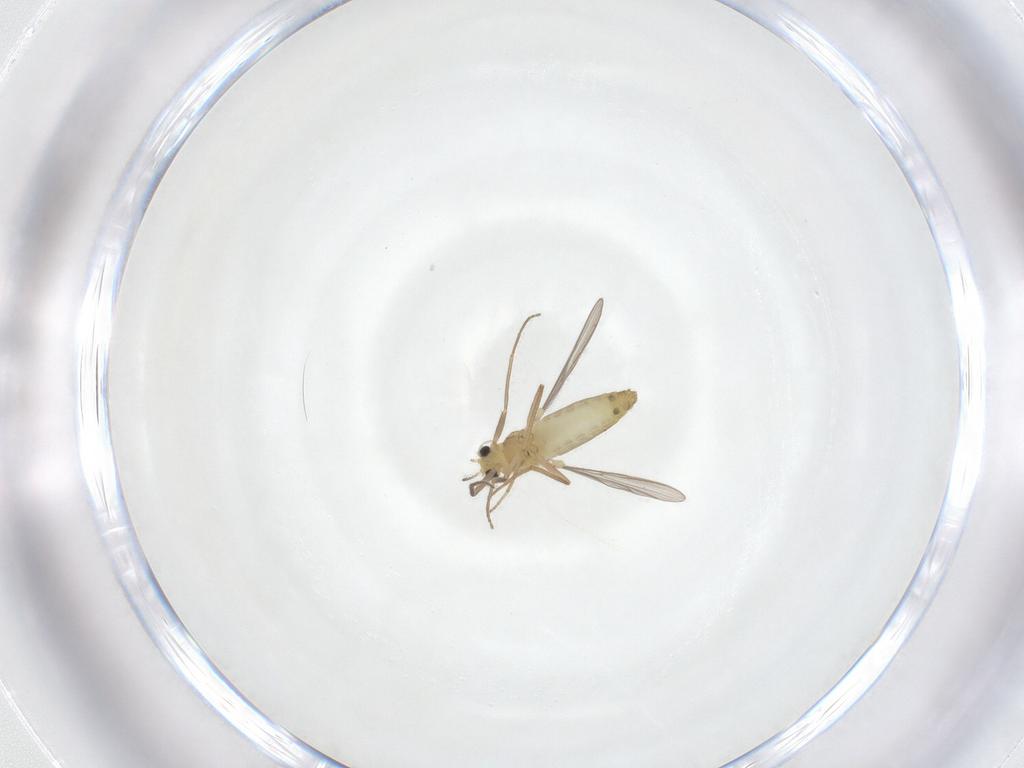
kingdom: Animalia
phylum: Arthropoda
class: Insecta
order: Diptera
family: Chironomidae
